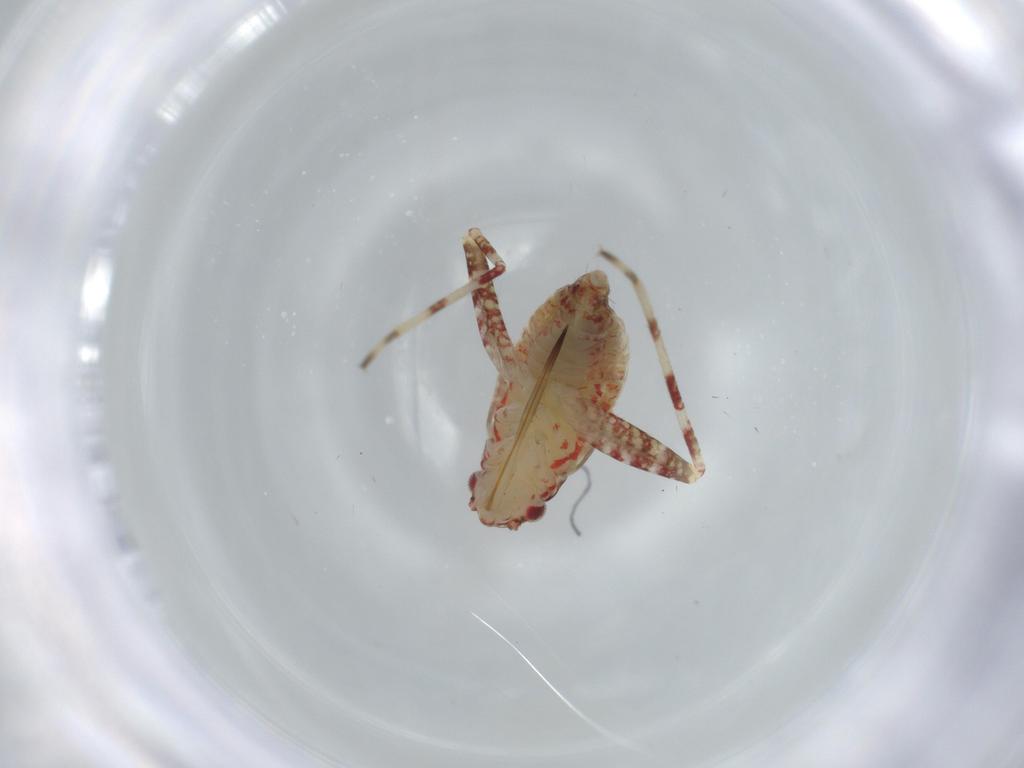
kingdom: Animalia
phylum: Arthropoda
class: Insecta
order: Hemiptera
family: Miridae
